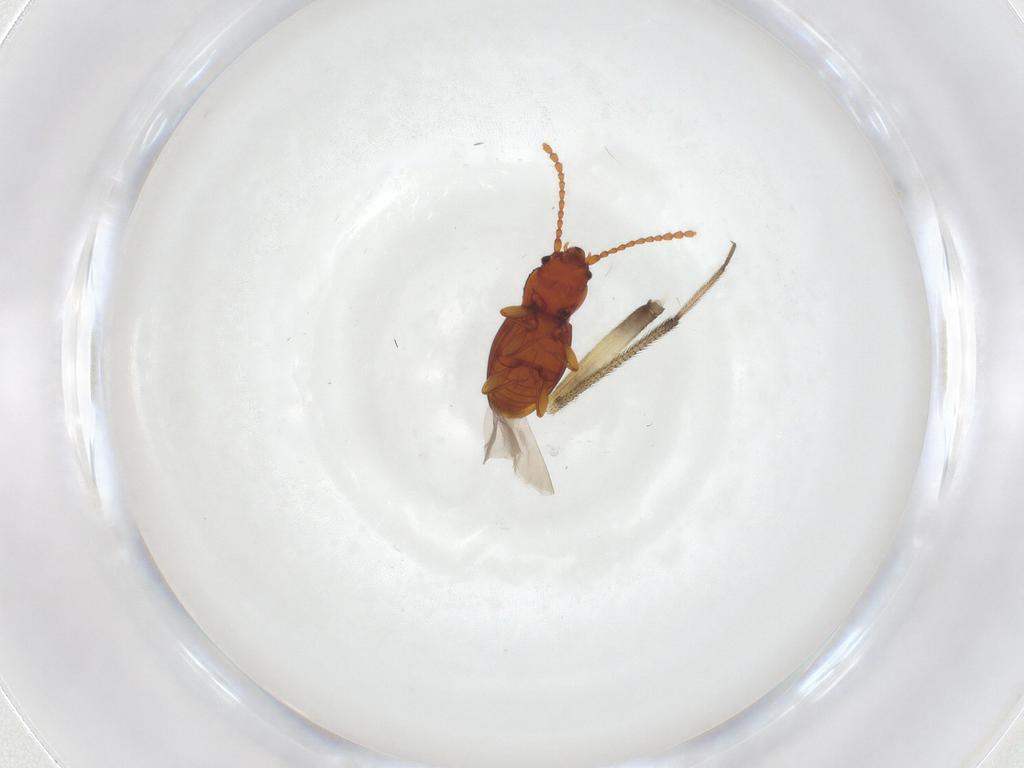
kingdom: Animalia
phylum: Arthropoda
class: Insecta
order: Coleoptera
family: Laemophloeidae
